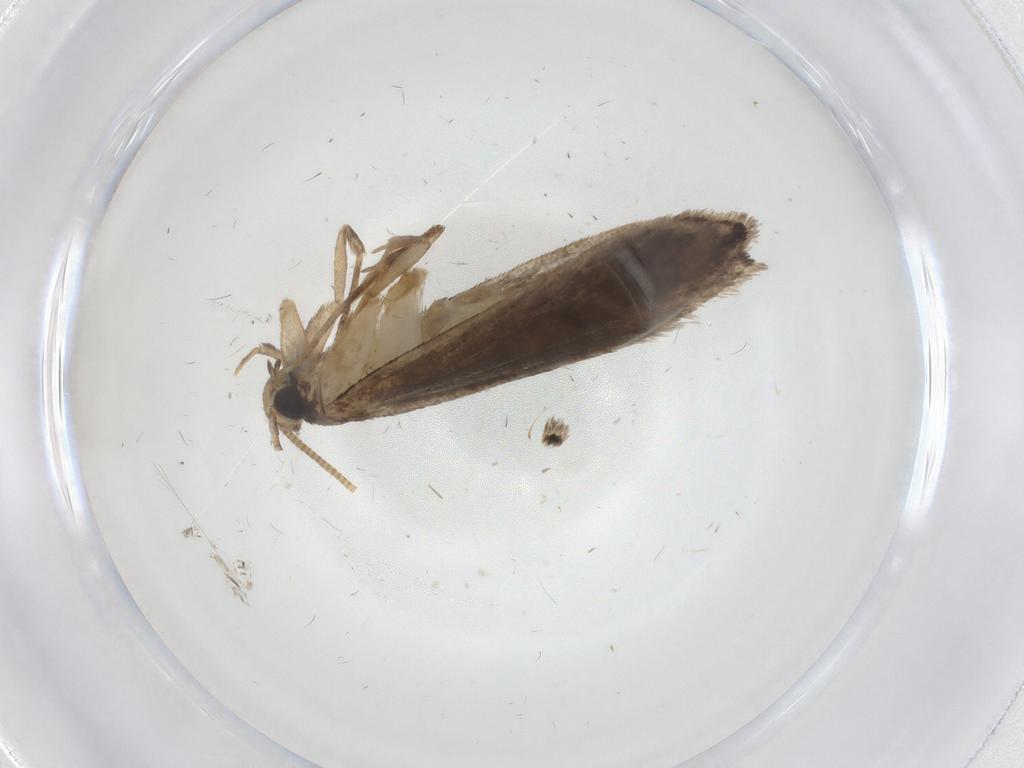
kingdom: Animalia
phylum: Arthropoda
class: Insecta
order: Lepidoptera
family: Tineidae
